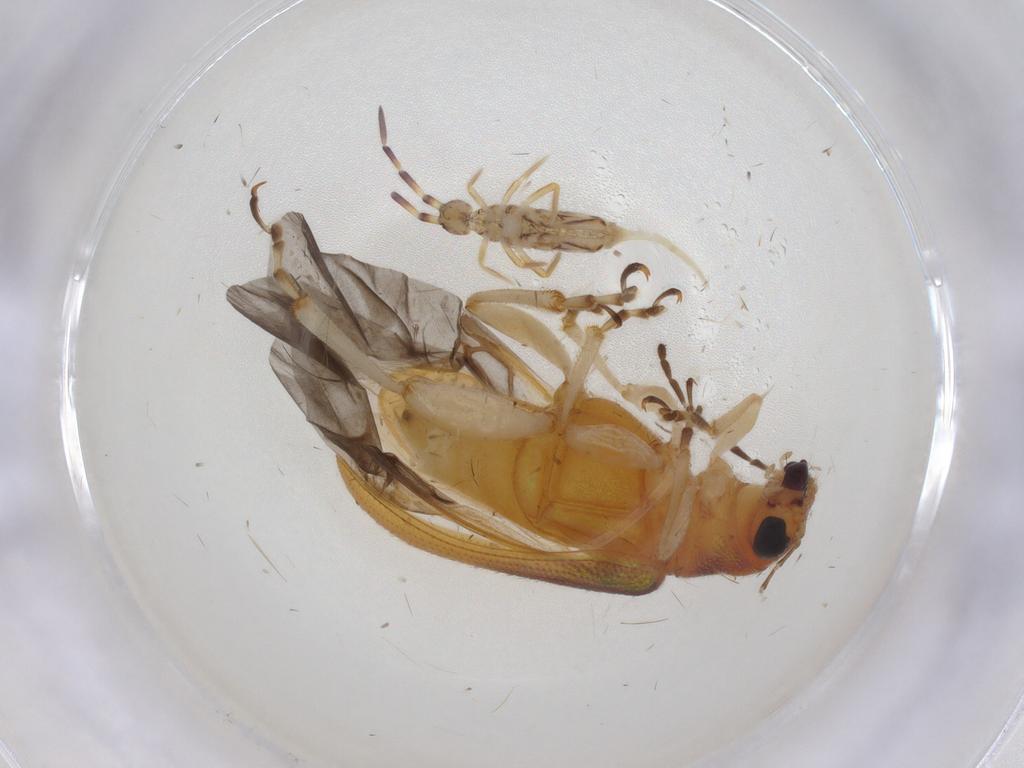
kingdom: Animalia
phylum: Arthropoda
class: Insecta
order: Coleoptera
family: Chrysomelidae
